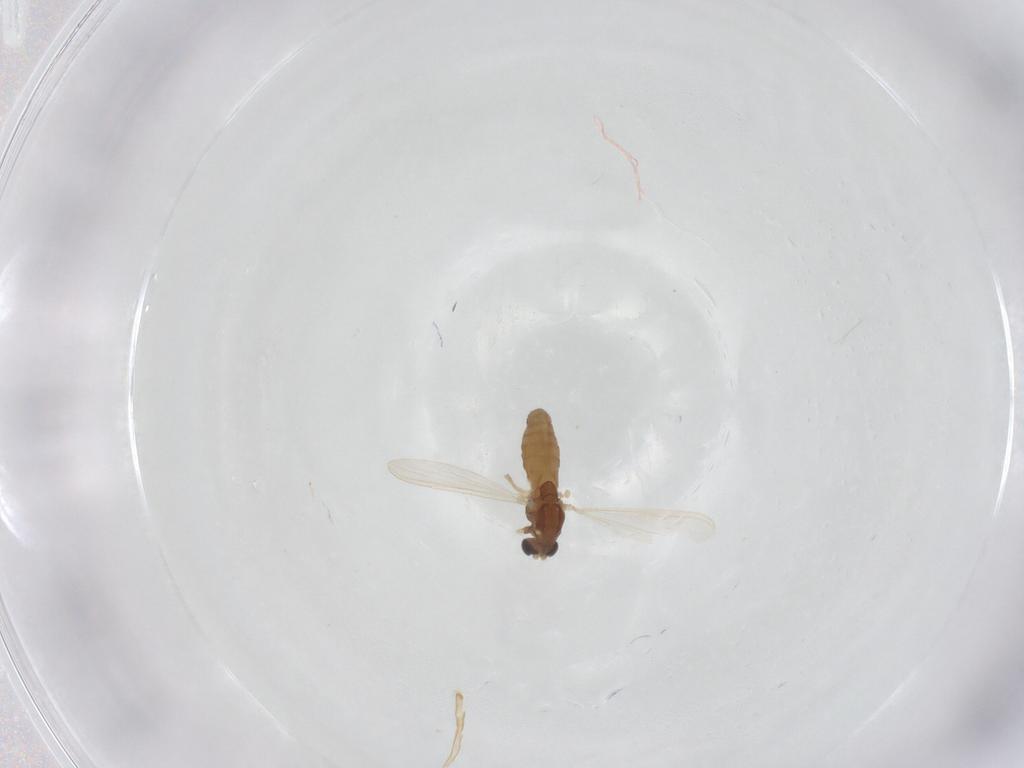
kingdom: Animalia
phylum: Arthropoda
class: Insecta
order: Diptera
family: Chironomidae
